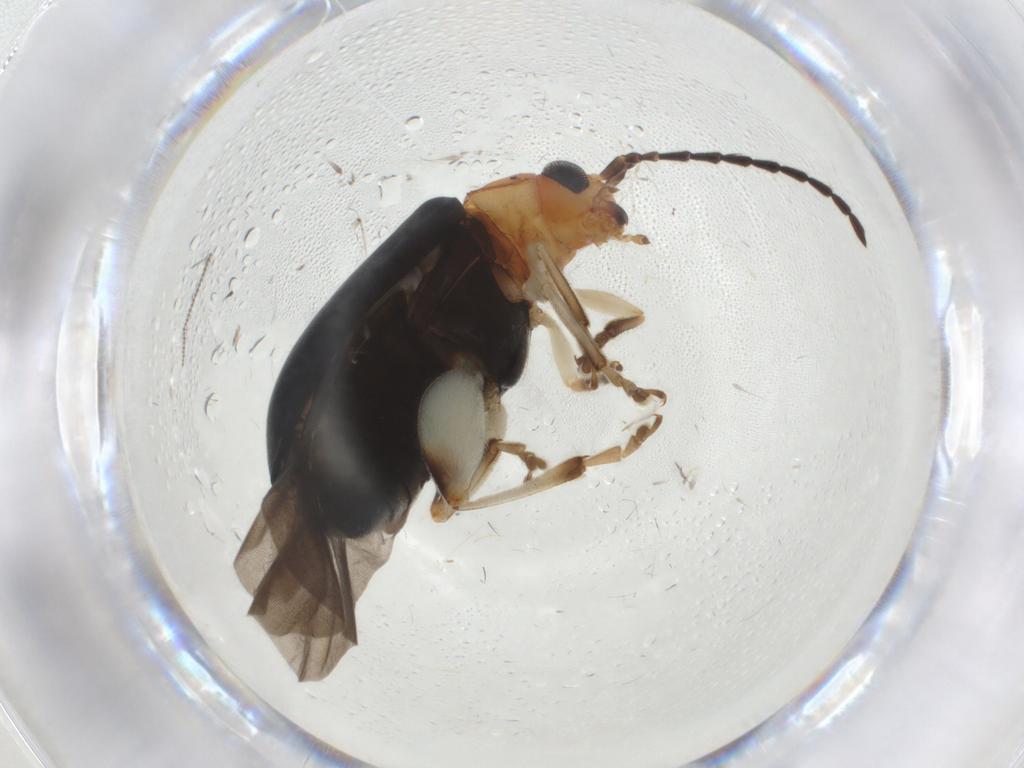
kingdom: Animalia
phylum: Arthropoda
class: Insecta
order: Coleoptera
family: Chrysomelidae
